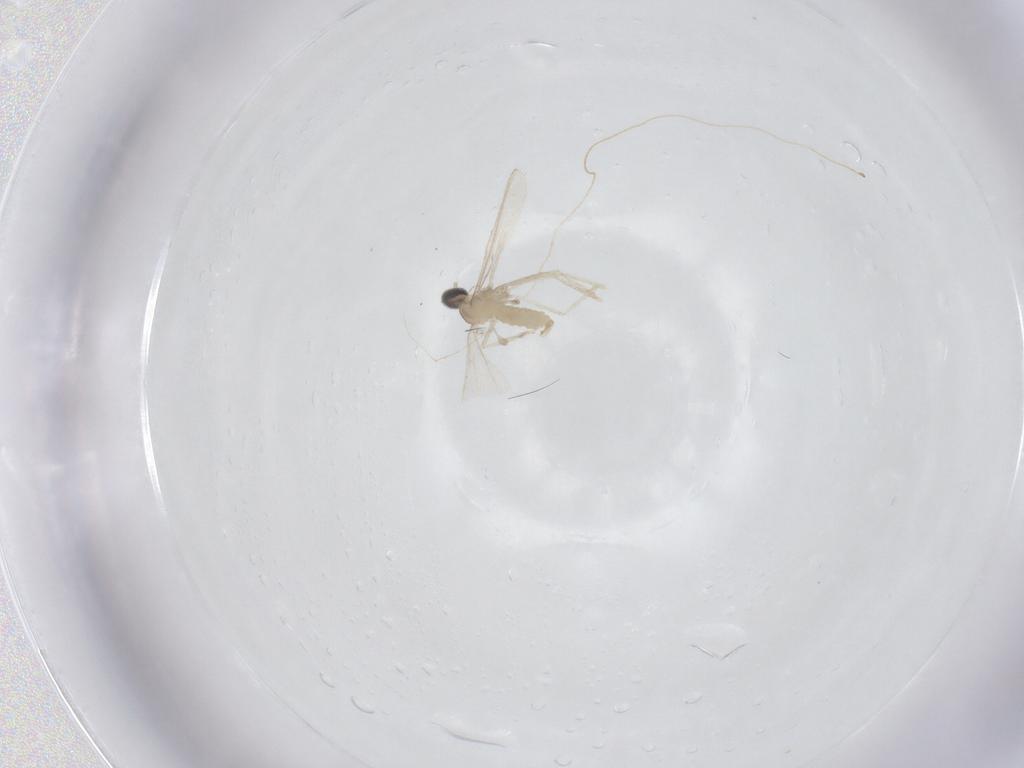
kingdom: Animalia
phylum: Arthropoda
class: Insecta
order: Diptera
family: Cecidomyiidae
